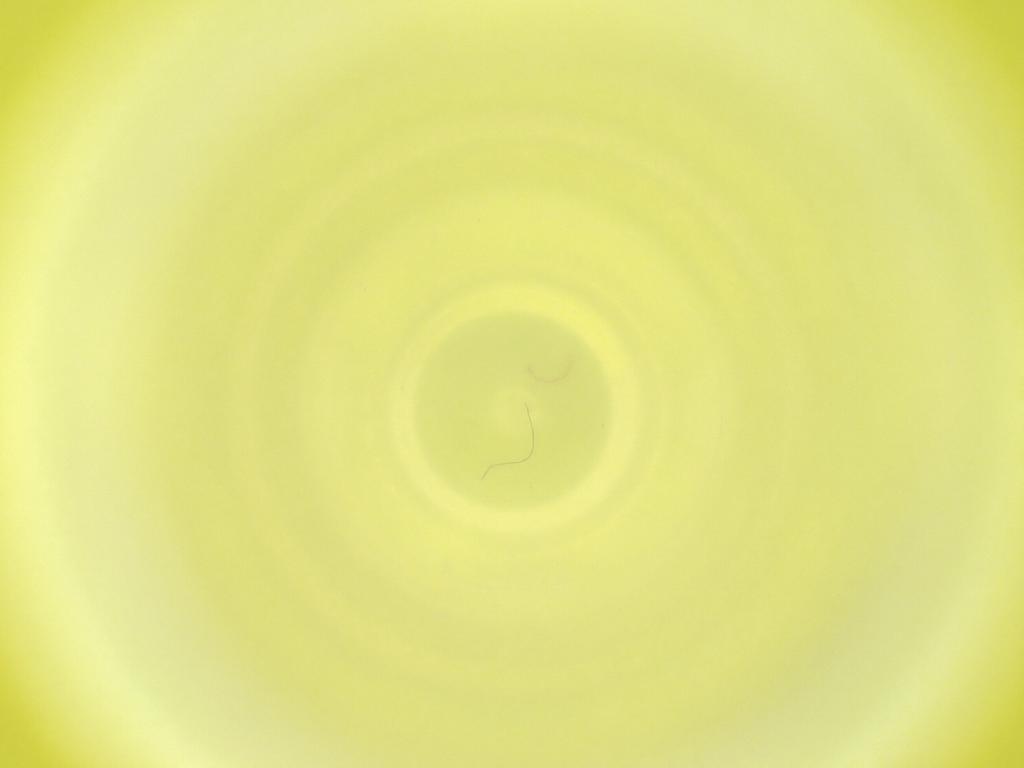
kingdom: Animalia
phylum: Arthropoda
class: Insecta
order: Diptera
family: Cecidomyiidae
